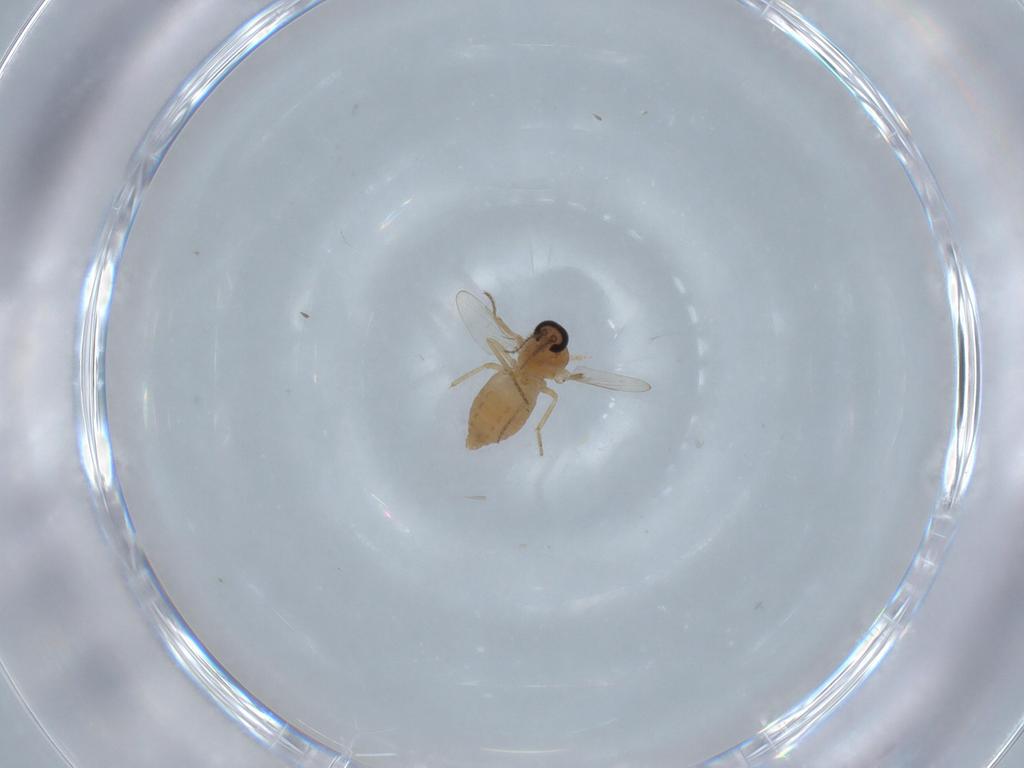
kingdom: Animalia
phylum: Arthropoda
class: Insecta
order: Diptera
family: Ceratopogonidae
